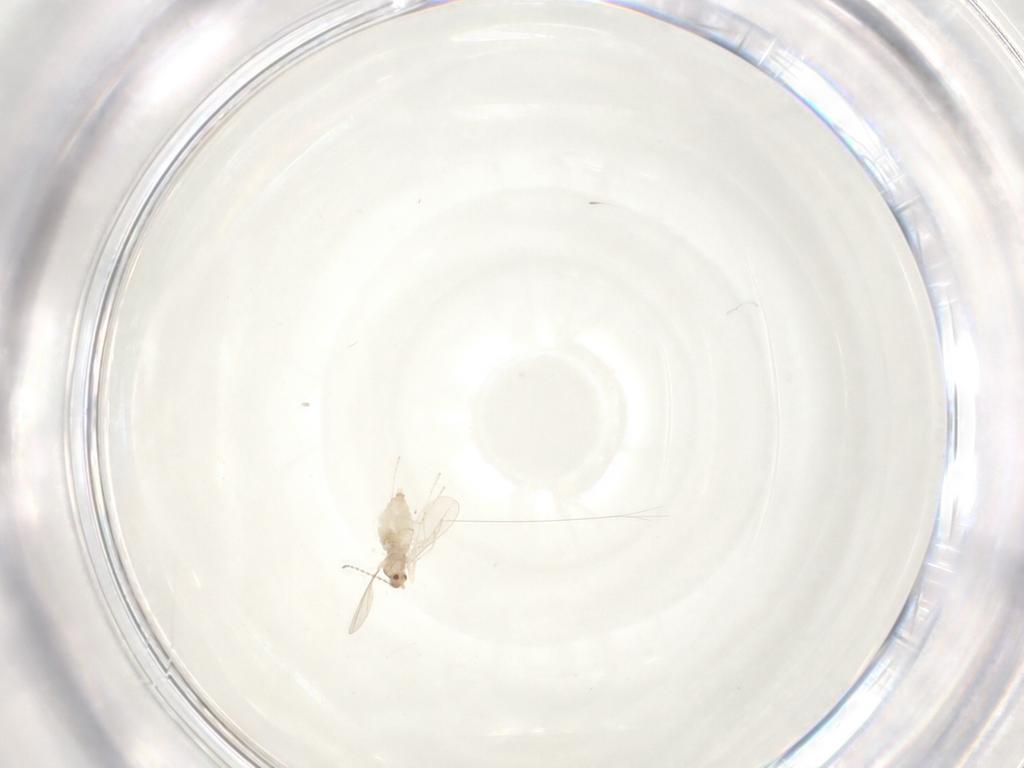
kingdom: Animalia
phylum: Arthropoda
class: Insecta
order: Diptera
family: Cecidomyiidae
